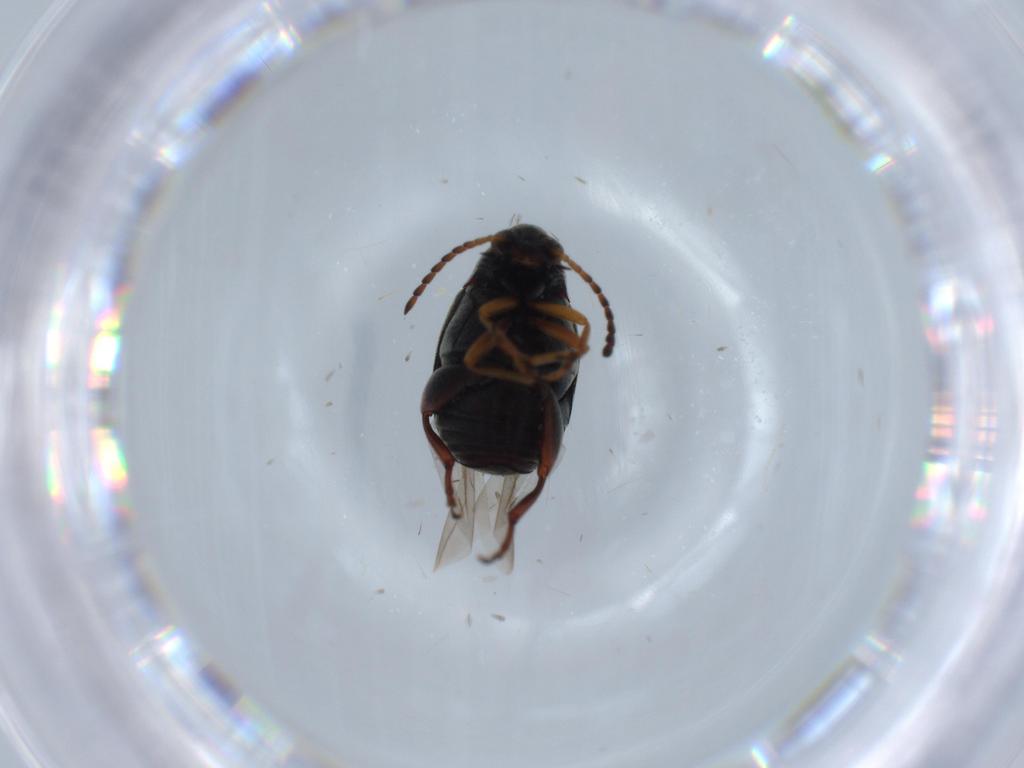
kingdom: Animalia
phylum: Arthropoda
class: Insecta
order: Coleoptera
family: Chrysomelidae
